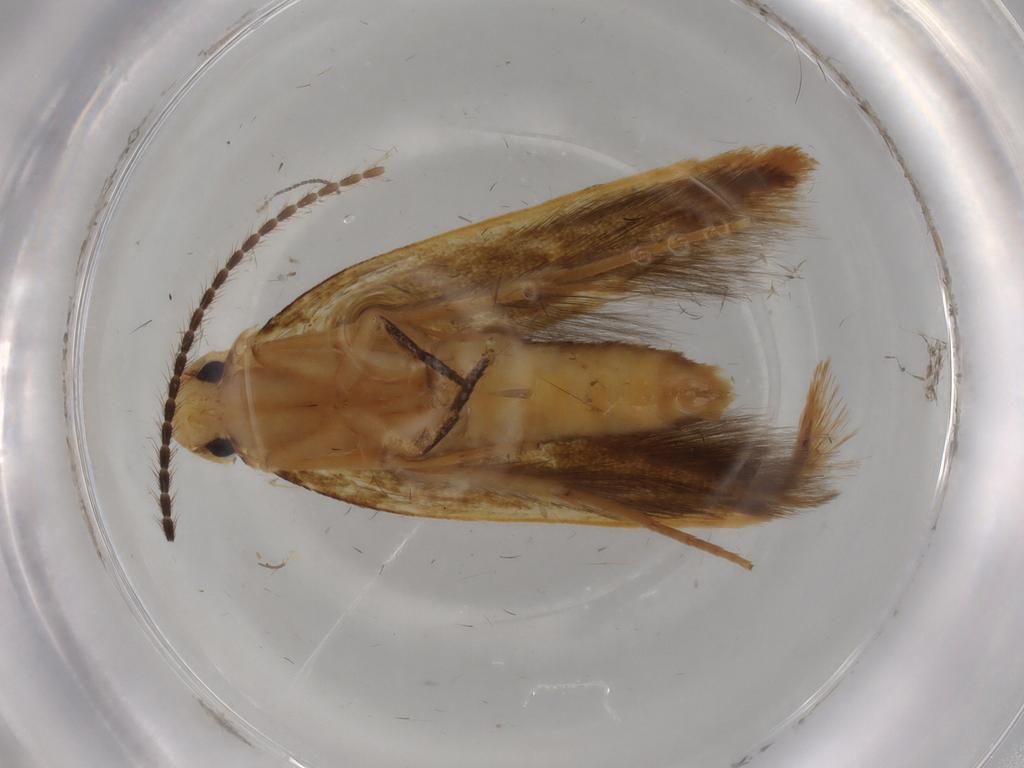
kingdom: Animalia
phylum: Arthropoda
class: Insecta
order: Lepidoptera
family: Tineidae
